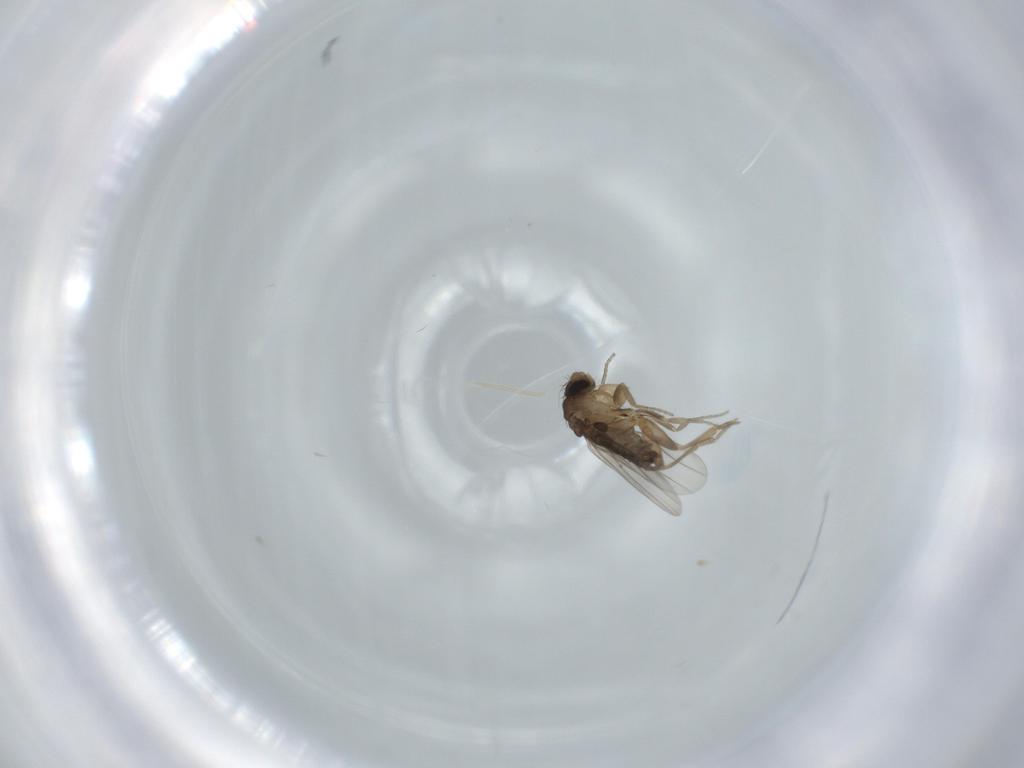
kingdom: Animalia
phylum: Arthropoda
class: Insecta
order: Diptera
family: Phoridae
